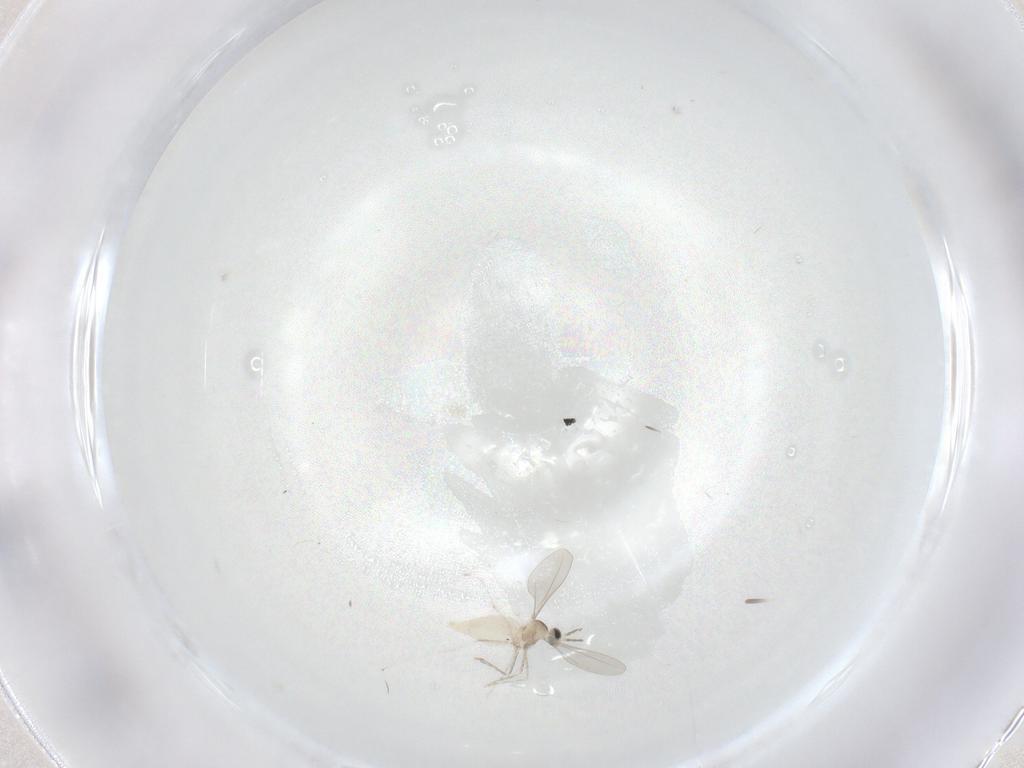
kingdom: Animalia
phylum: Arthropoda
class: Insecta
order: Diptera
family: Cecidomyiidae
